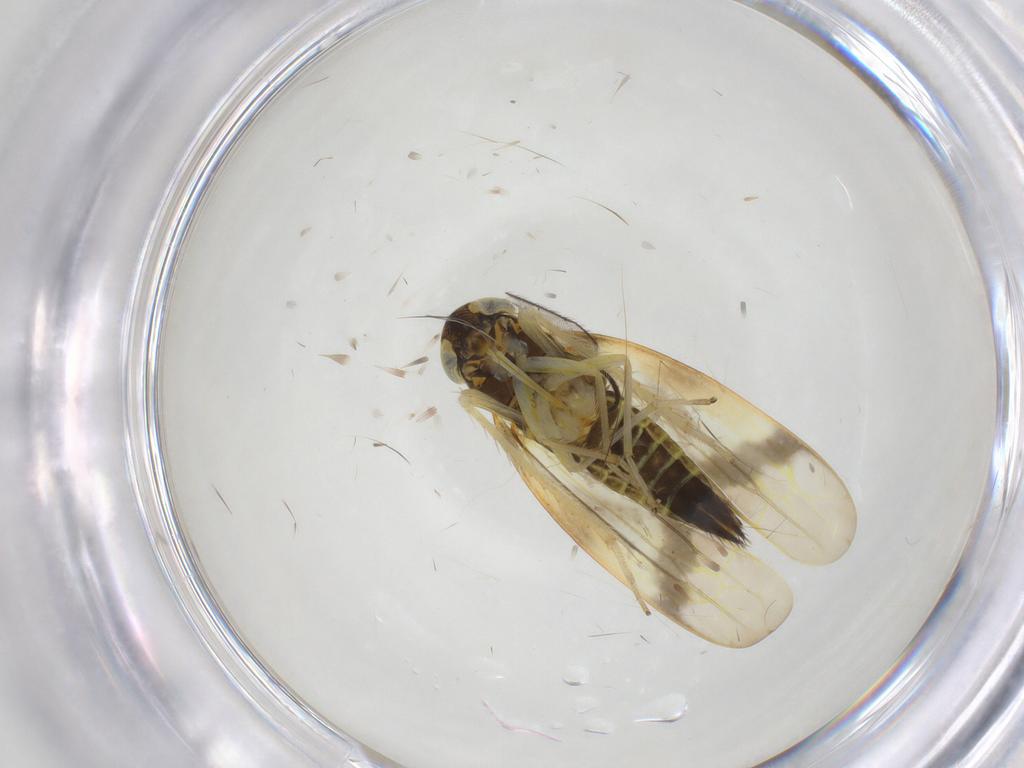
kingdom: Animalia
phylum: Arthropoda
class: Insecta
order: Hemiptera
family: Cicadellidae
